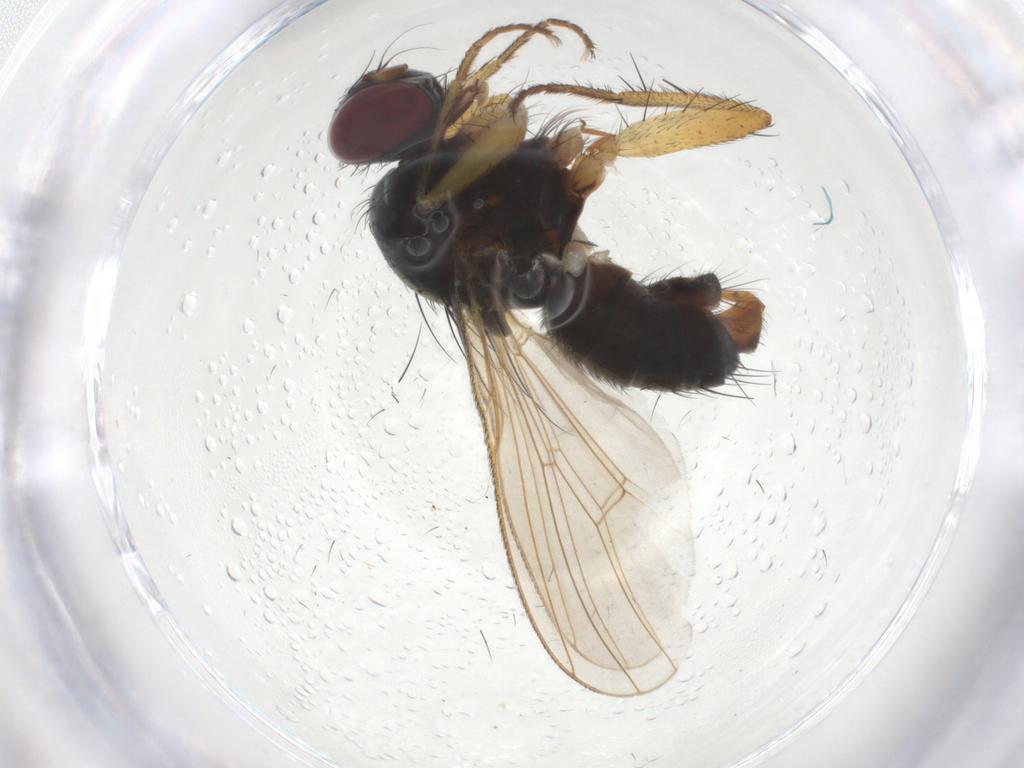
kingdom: Animalia
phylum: Arthropoda
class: Insecta
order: Diptera
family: Muscidae
